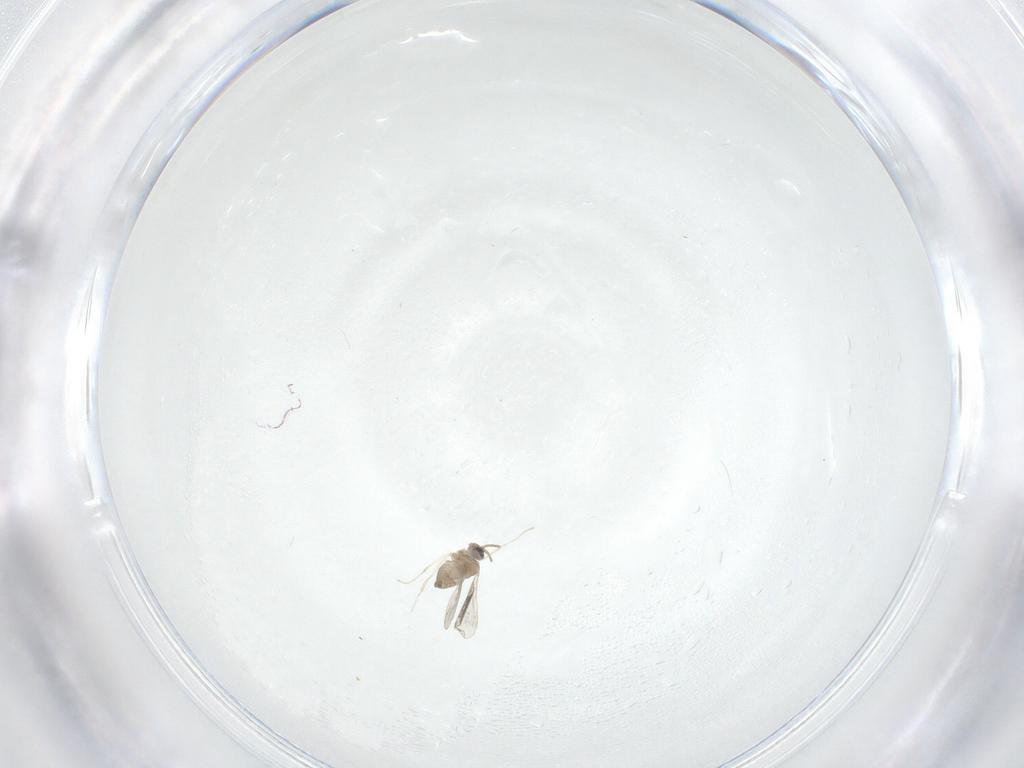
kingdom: Animalia
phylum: Arthropoda
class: Insecta
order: Diptera
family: Cecidomyiidae
